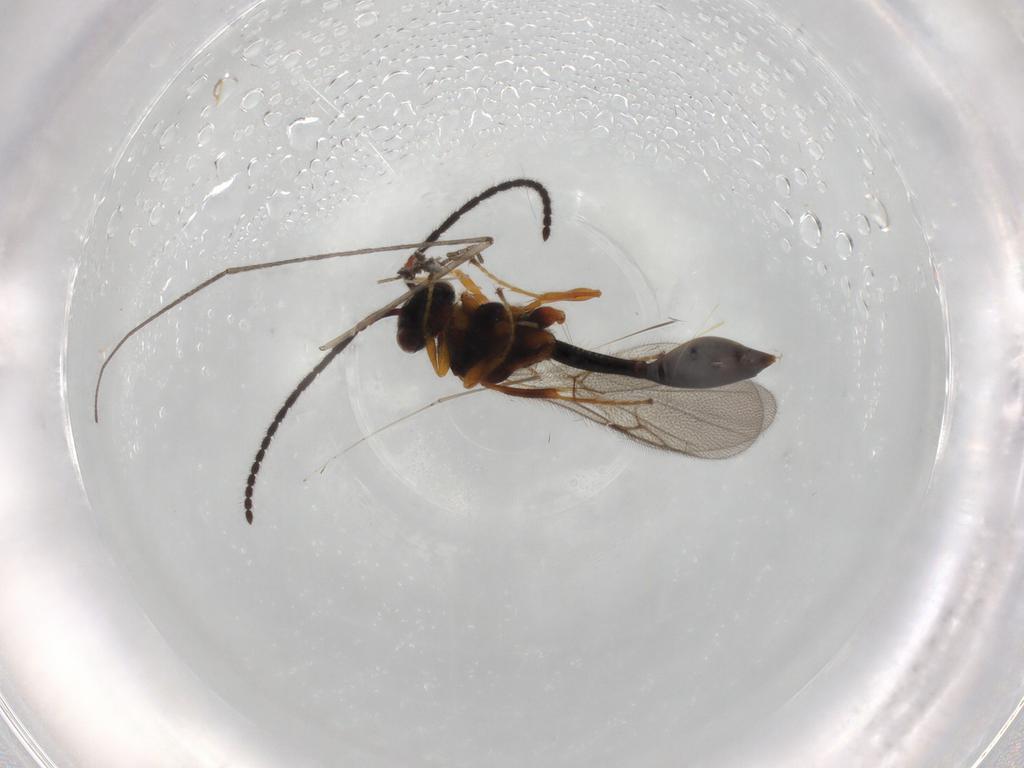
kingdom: Animalia
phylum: Arthropoda
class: Insecta
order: Hymenoptera
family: Diapriidae
